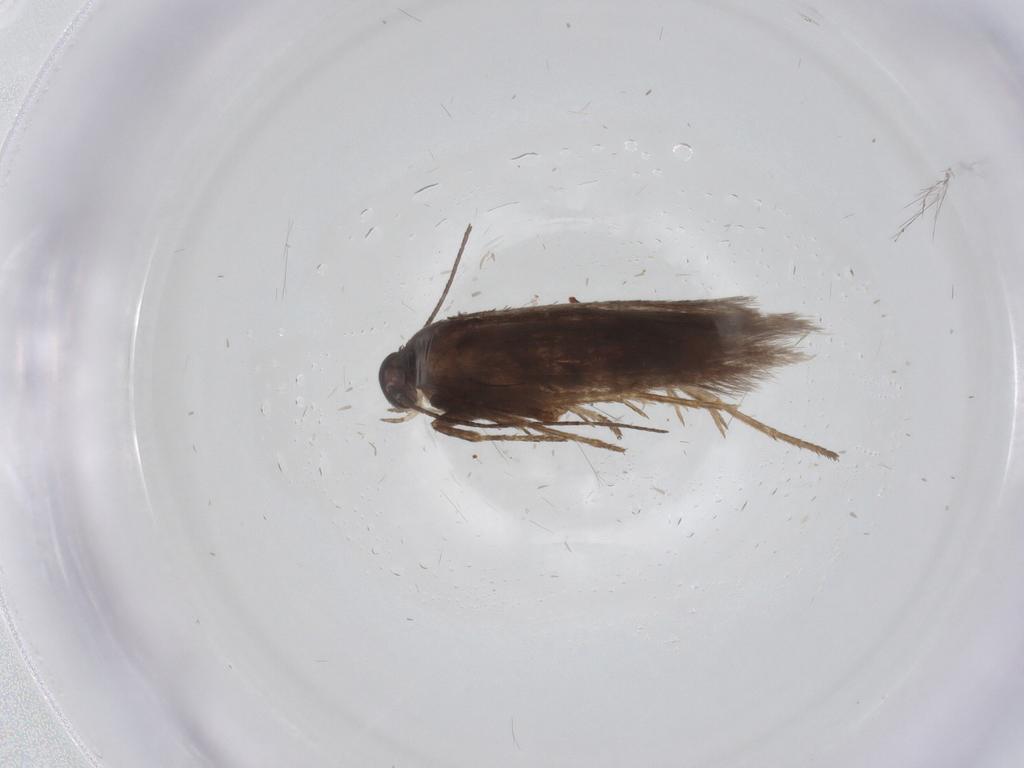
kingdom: Animalia
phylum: Arthropoda
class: Insecta
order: Lepidoptera
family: Scythrididae
